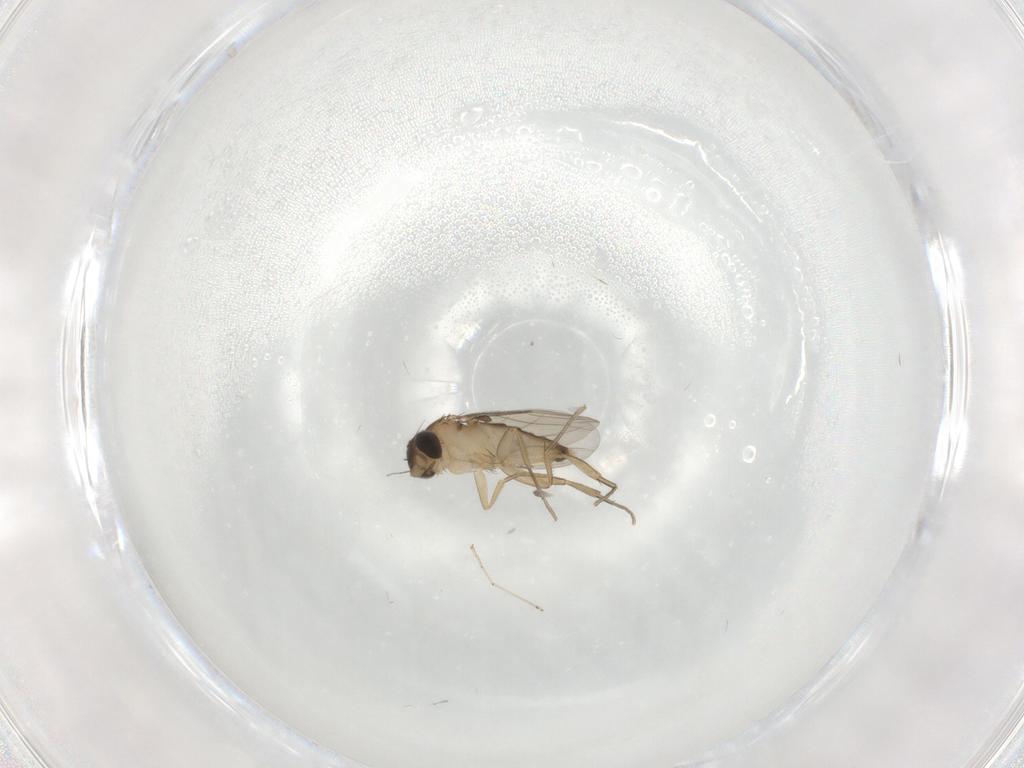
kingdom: Animalia
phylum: Arthropoda
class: Insecta
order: Diptera
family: Phoridae
